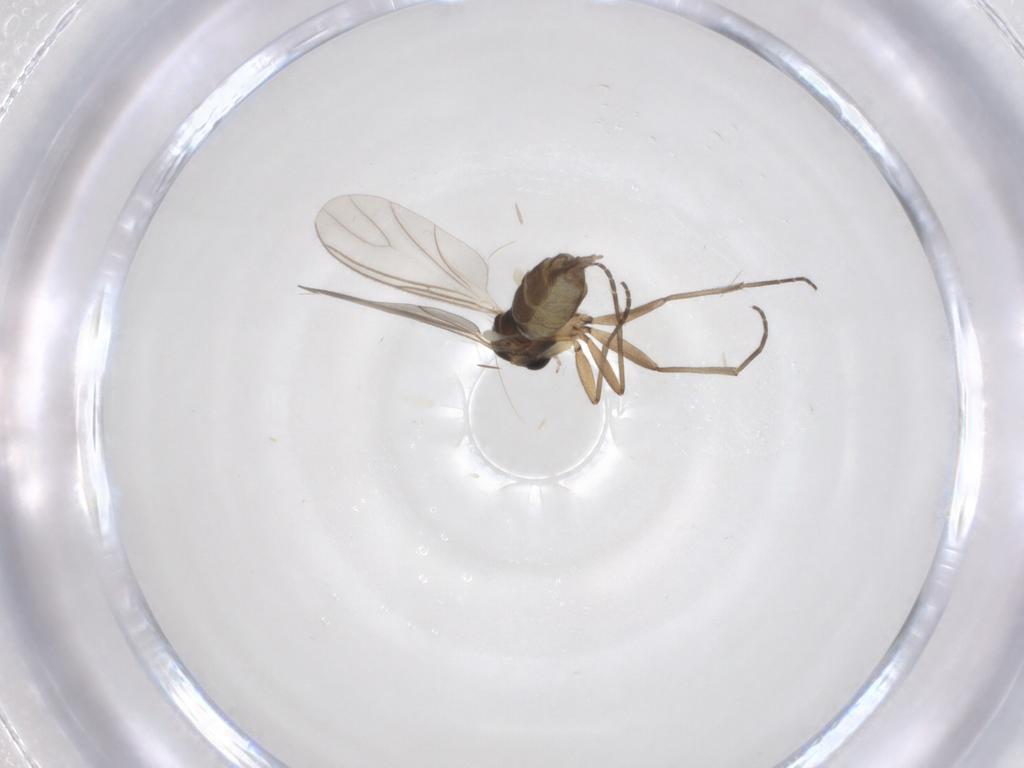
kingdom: Animalia
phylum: Arthropoda
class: Insecta
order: Diptera
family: Sciaridae
